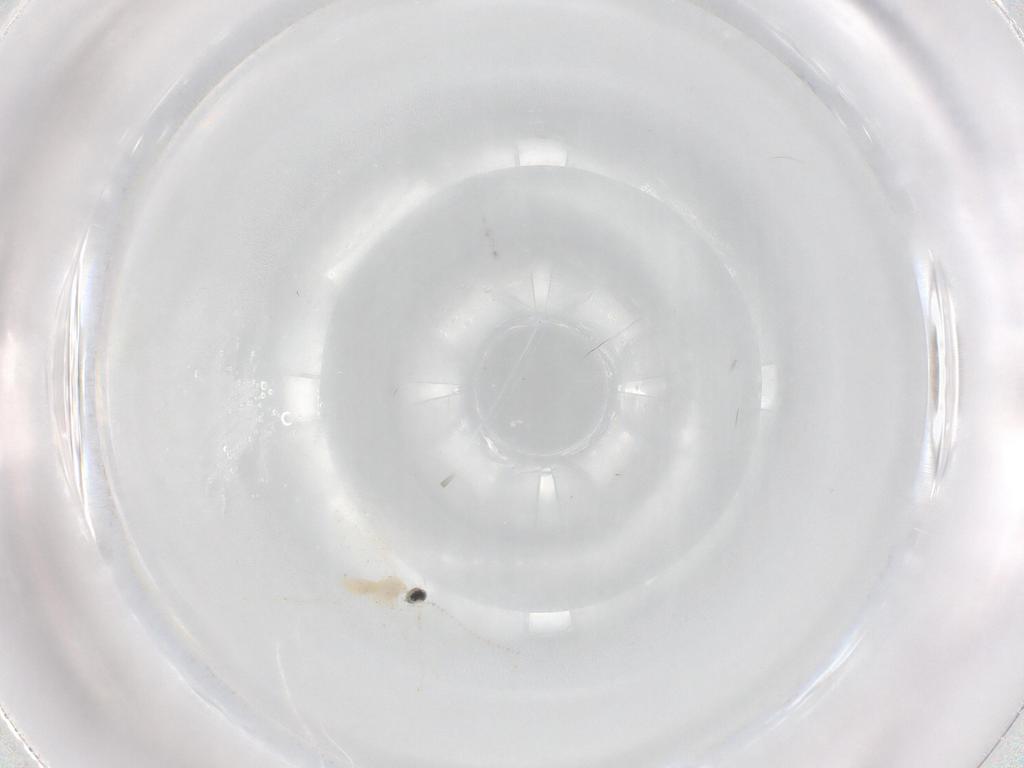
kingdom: Animalia
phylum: Arthropoda
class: Insecta
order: Diptera
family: Cecidomyiidae
